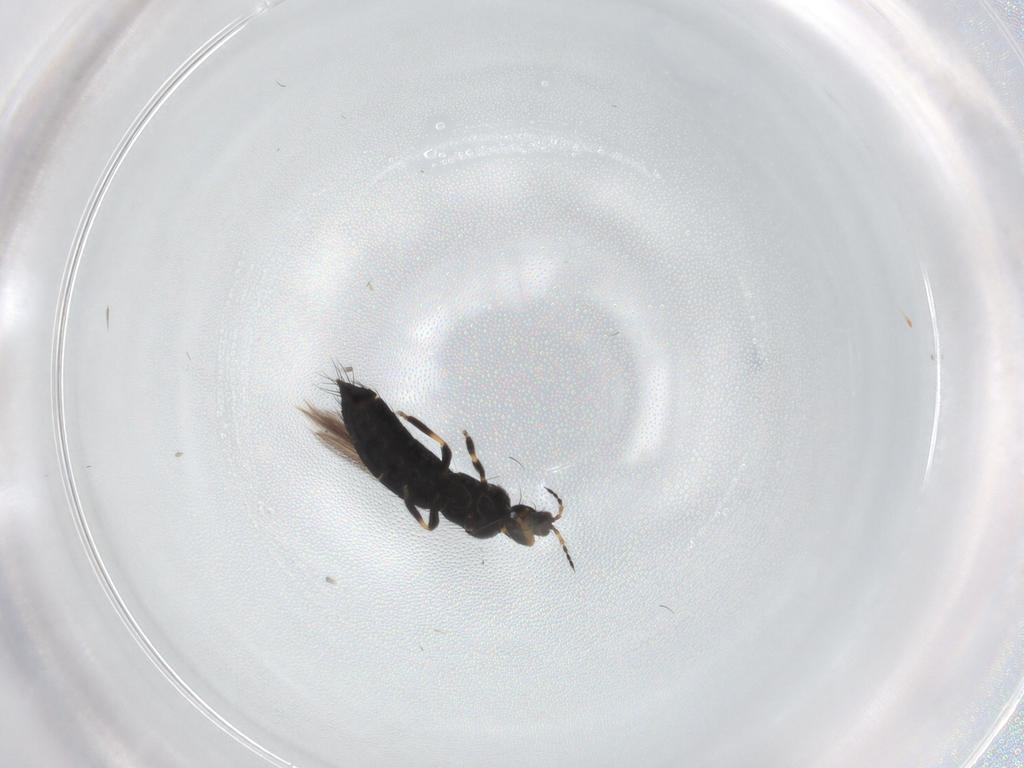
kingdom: Animalia
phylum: Arthropoda
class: Insecta
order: Thysanoptera
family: Thripidae
